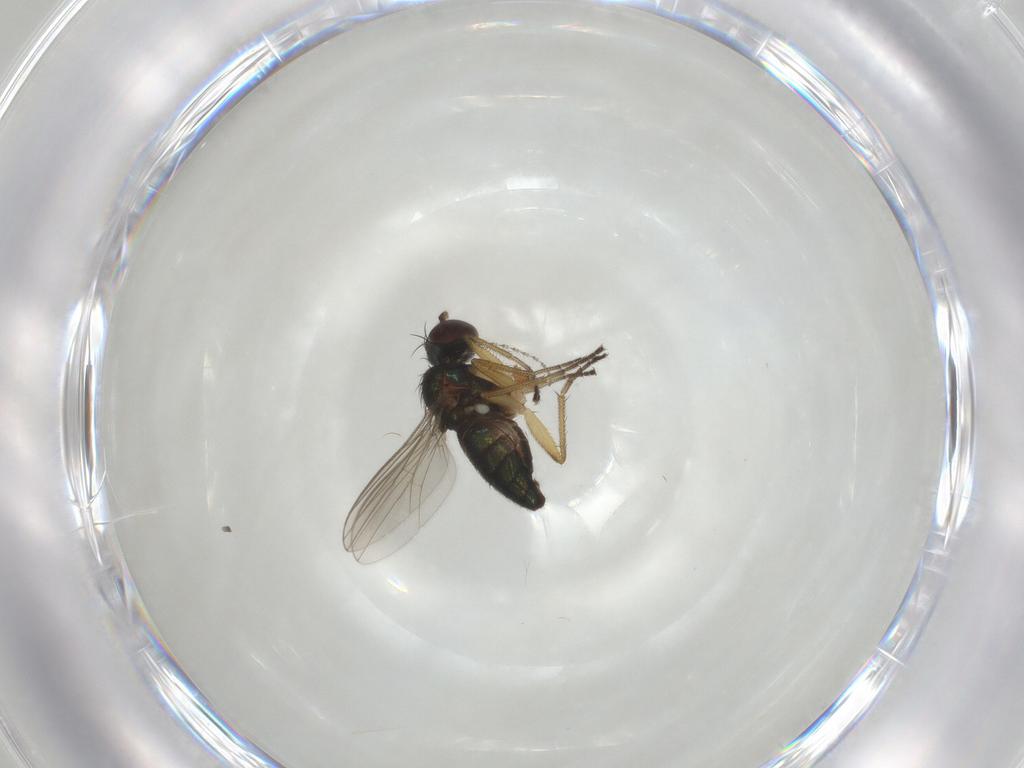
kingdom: Animalia
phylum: Arthropoda
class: Insecta
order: Diptera
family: Cecidomyiidae
